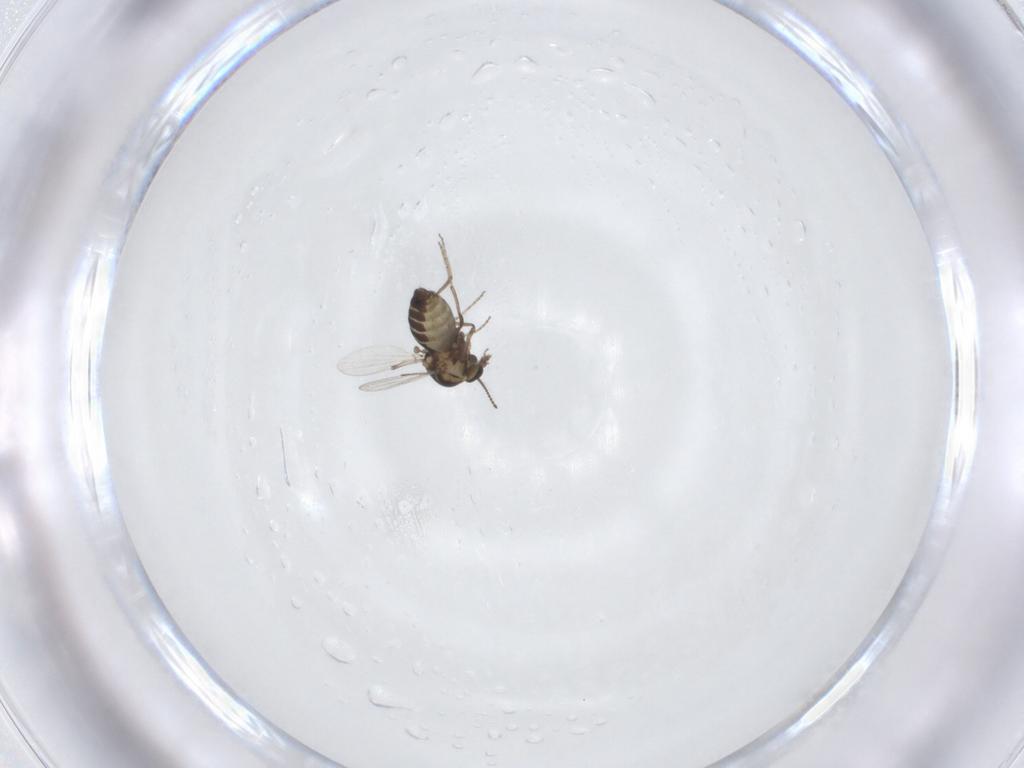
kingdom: Animalia
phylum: Arthropoda
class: Insecta
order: Diptera
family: Ceratopogonidae
